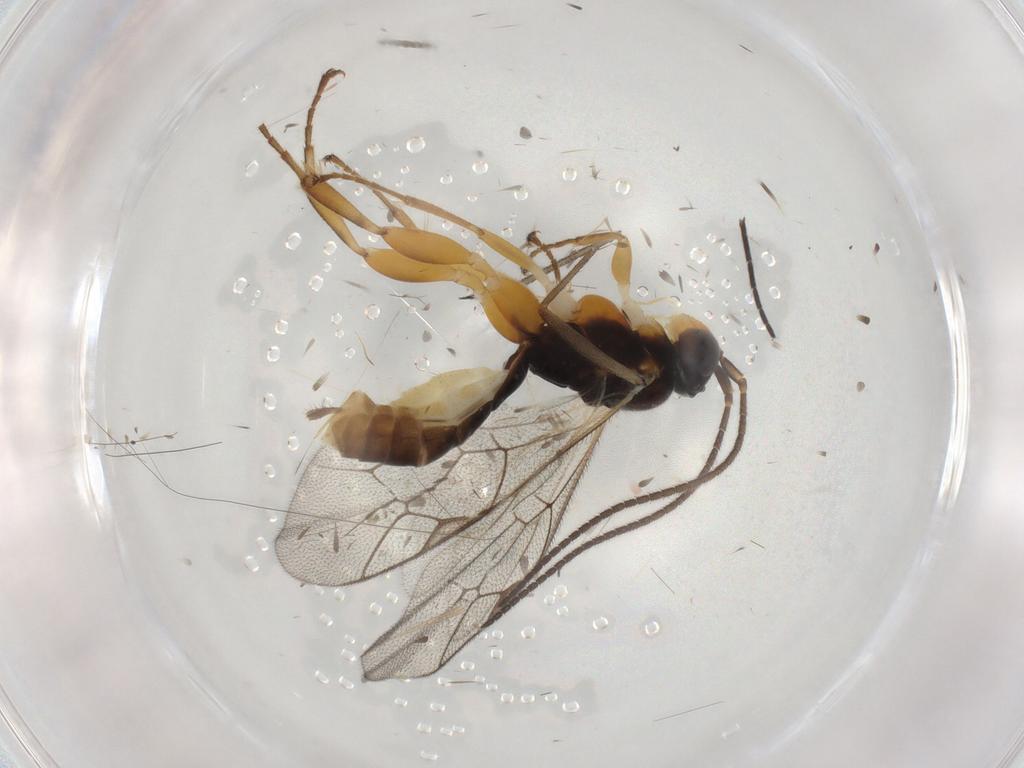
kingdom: Animalia
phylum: Arthropoda
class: Insecta
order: Hymenoptera
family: Ichneumonidae
